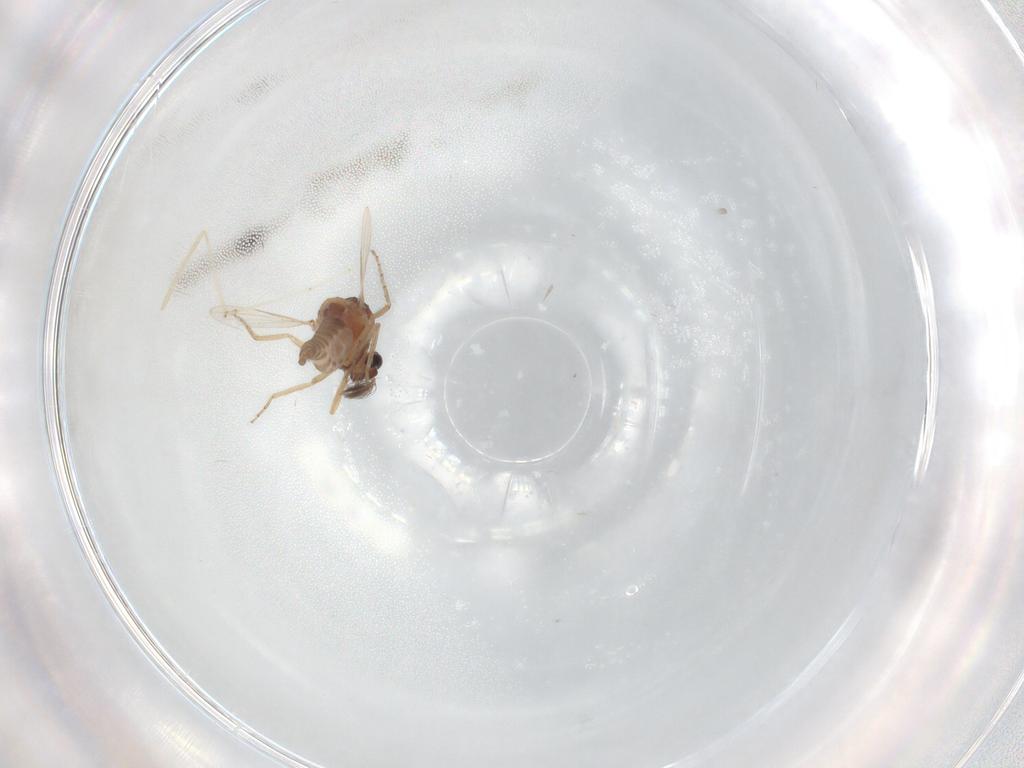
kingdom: Animalia
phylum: Arthropoda
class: Insecta
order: Diptera
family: Ceratopogonidae
